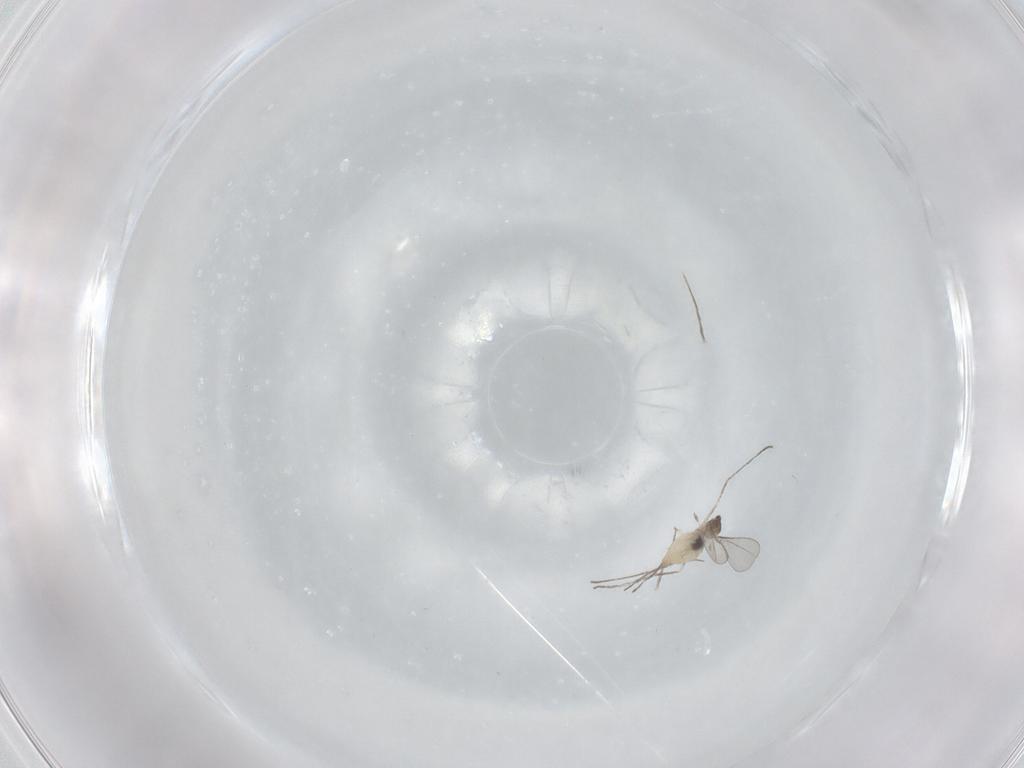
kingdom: Animalia
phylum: Arthropoda
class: Insecta
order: Diptera
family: Cecidomyiidae
